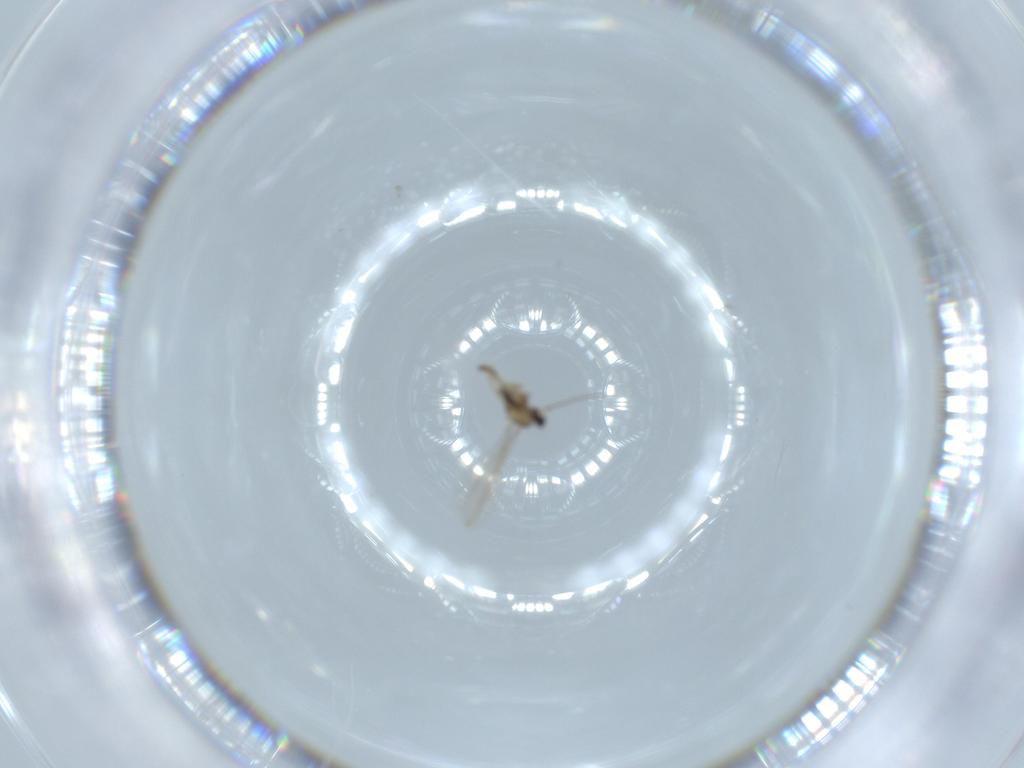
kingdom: Animalia
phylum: Arthropoda
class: Insecta
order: Diptera
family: Cecidomyiidae
